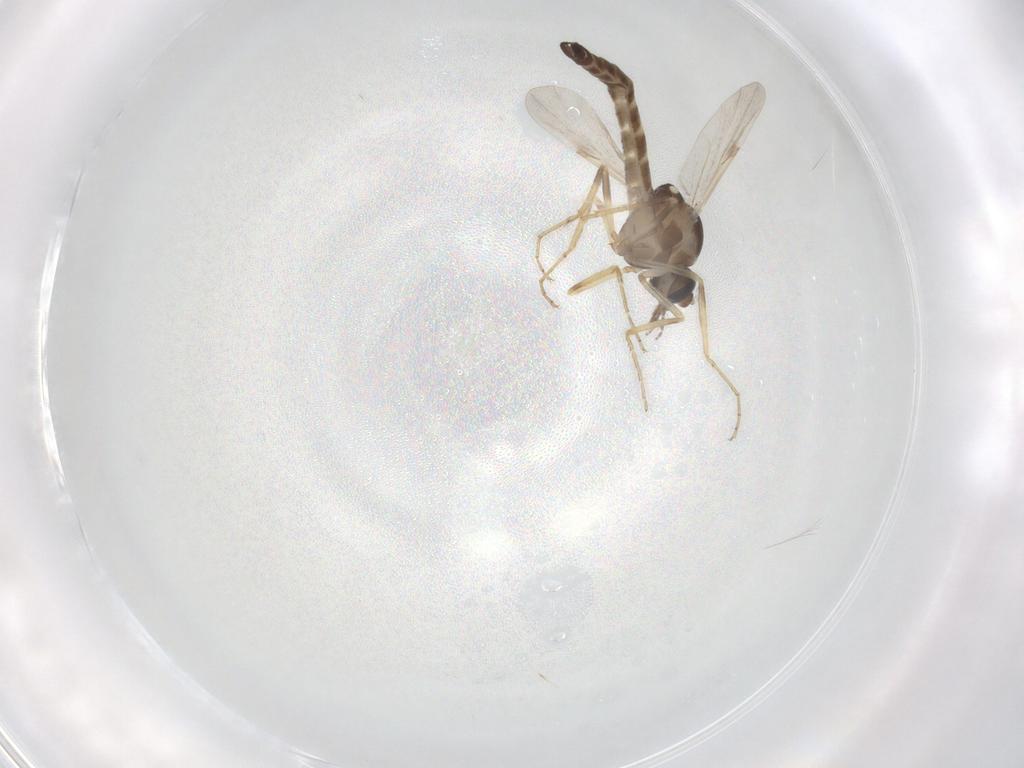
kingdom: Animalia
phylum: Arthropoda
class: Insecta
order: Diptera
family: Ceratopogonidae
